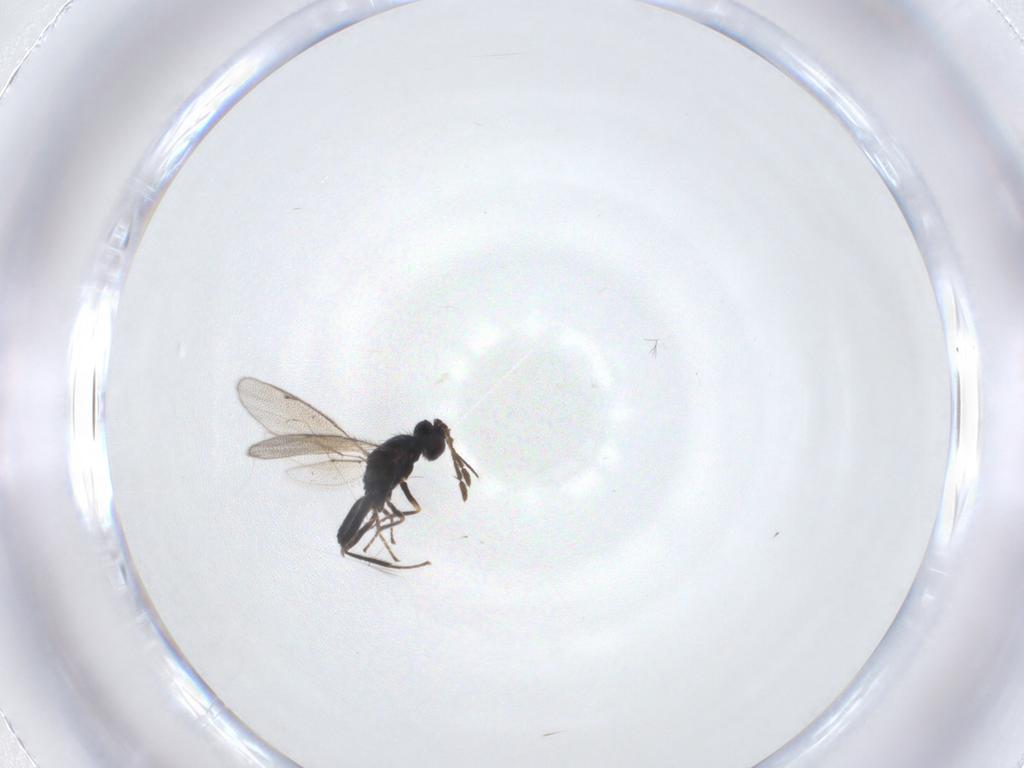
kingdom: Animalia
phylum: Arthropoda
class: Insecta
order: Hymenoptera
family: Eulophidae
